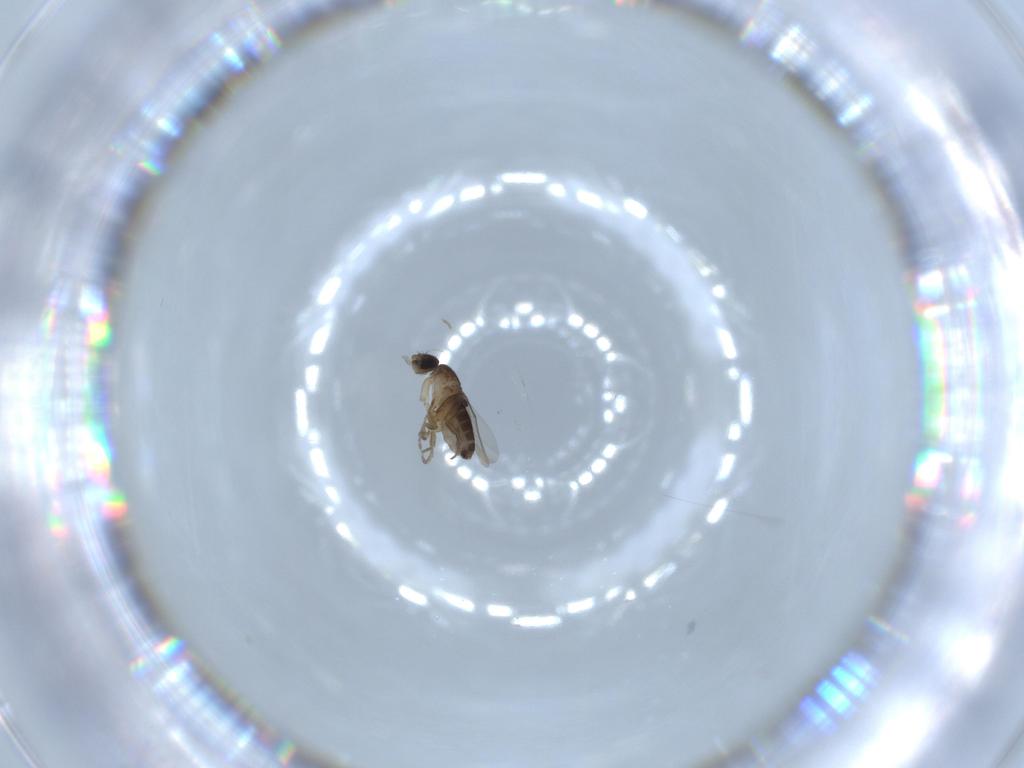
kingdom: Animalia
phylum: Arthropoda
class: Insecta
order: Diptera
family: Phoridae
